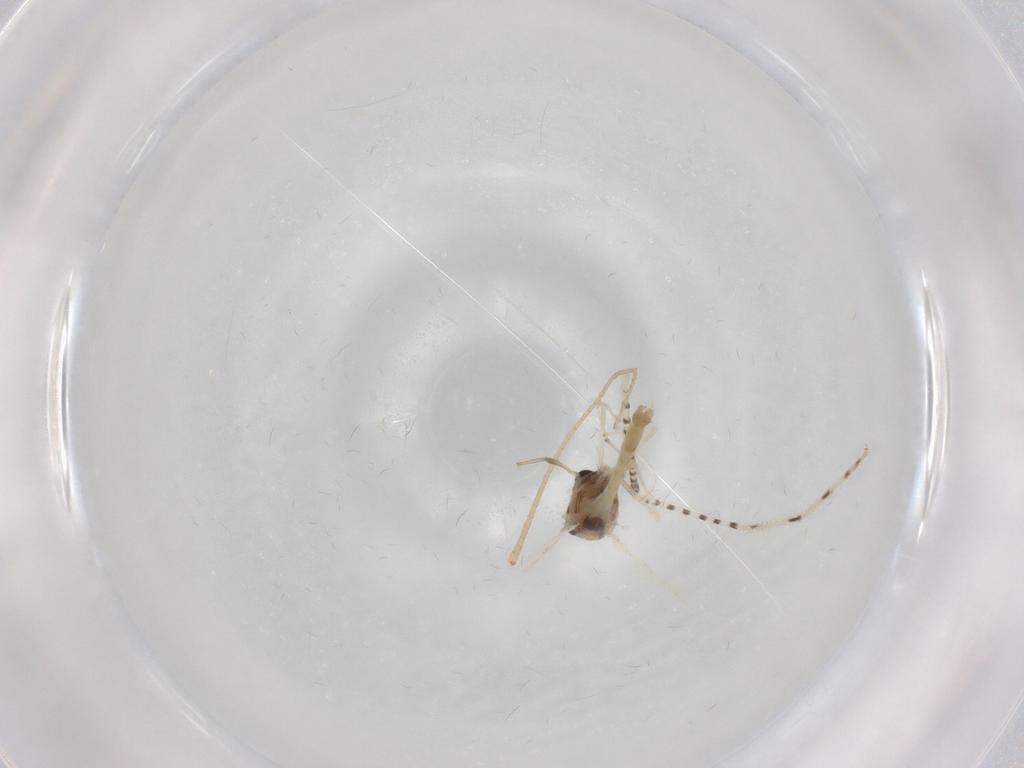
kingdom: Animalia
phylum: Arthropoda
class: Insecta
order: Diptera
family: Chironomidae
